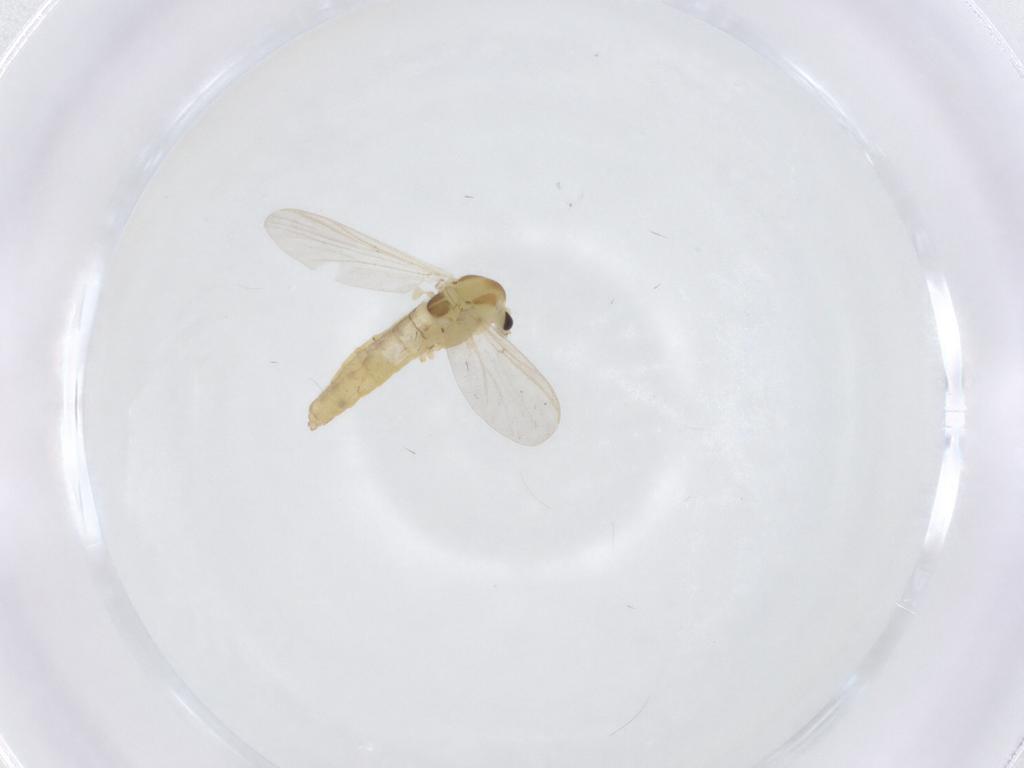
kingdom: Animalia
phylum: Arthropoda
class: Insecta
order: Diptera
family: Chironomidae
